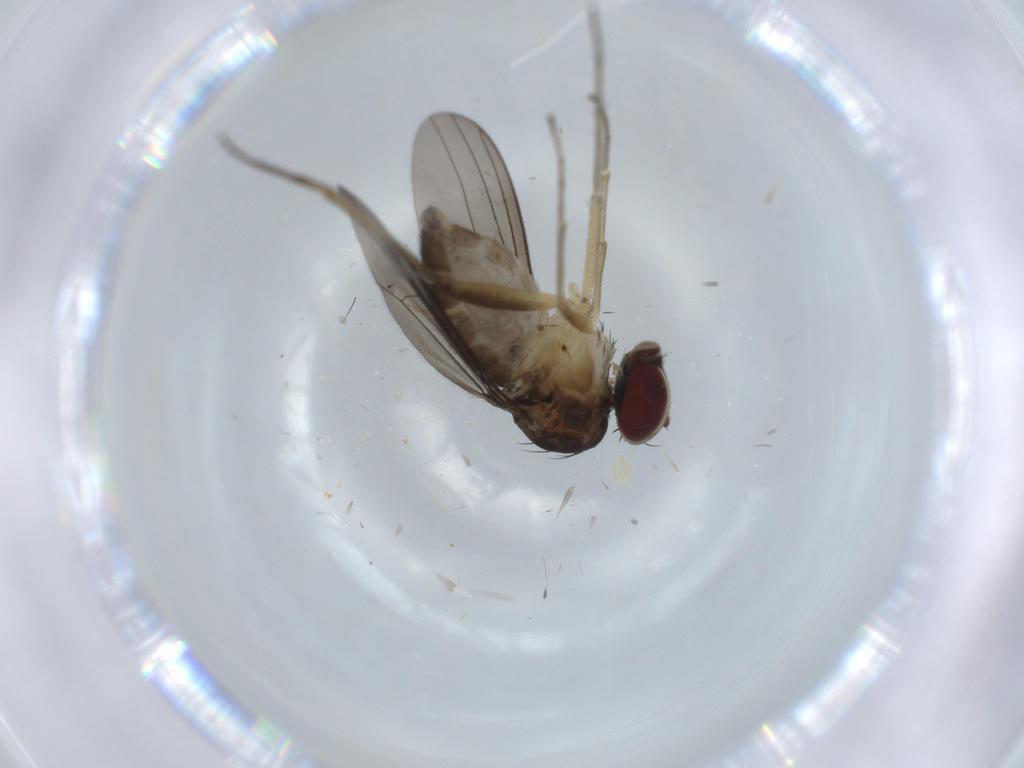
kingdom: Animalia
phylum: Arthropoda
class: Insecta
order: Diptera
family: Dolichopodidae
